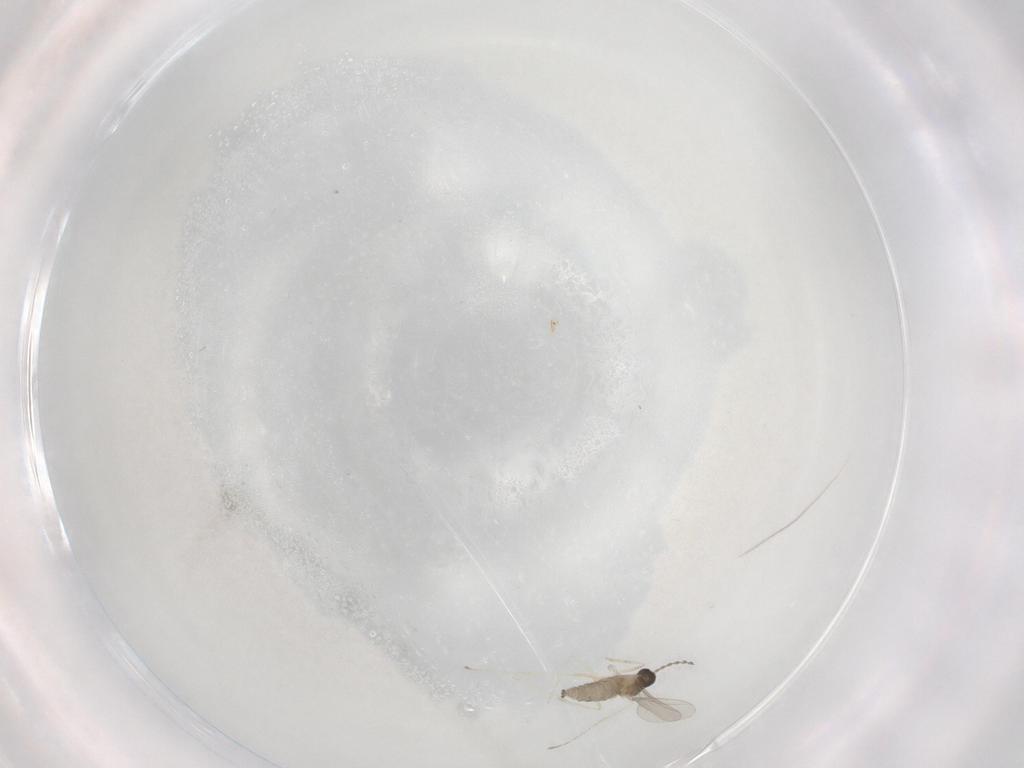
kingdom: Animalia
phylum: Arthropoda
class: Insecta
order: Diptera
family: Cecidomyiidae
